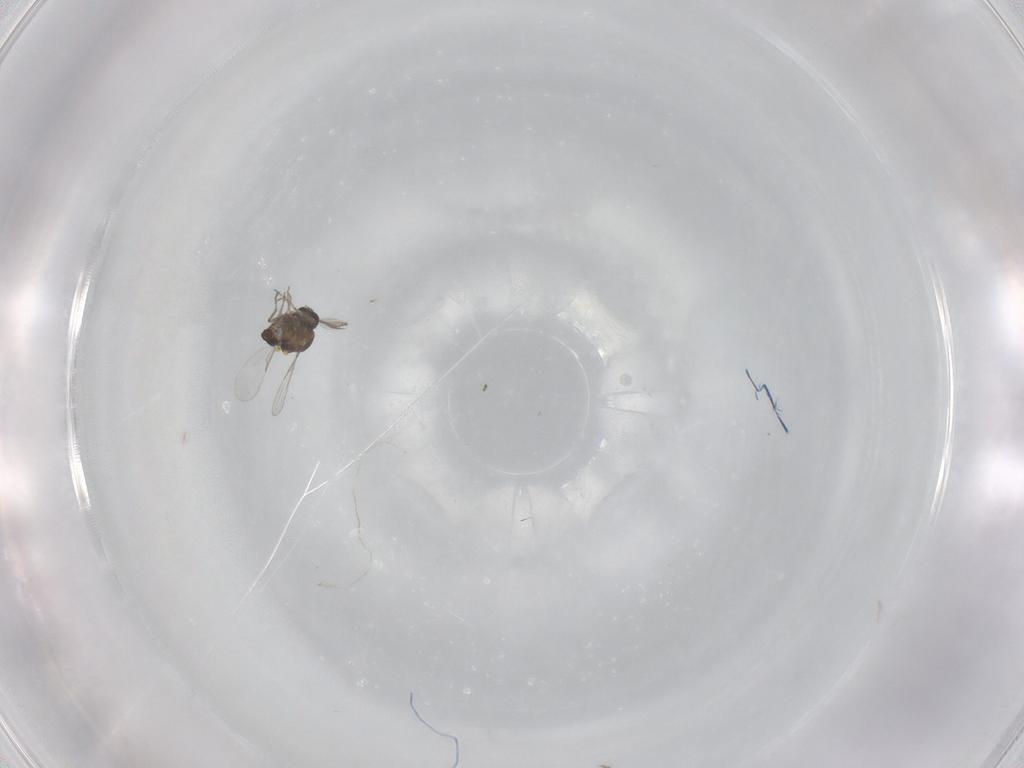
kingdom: Animalia
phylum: Arthropoda
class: Insecta
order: Diptera
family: Ceratopogonidae
